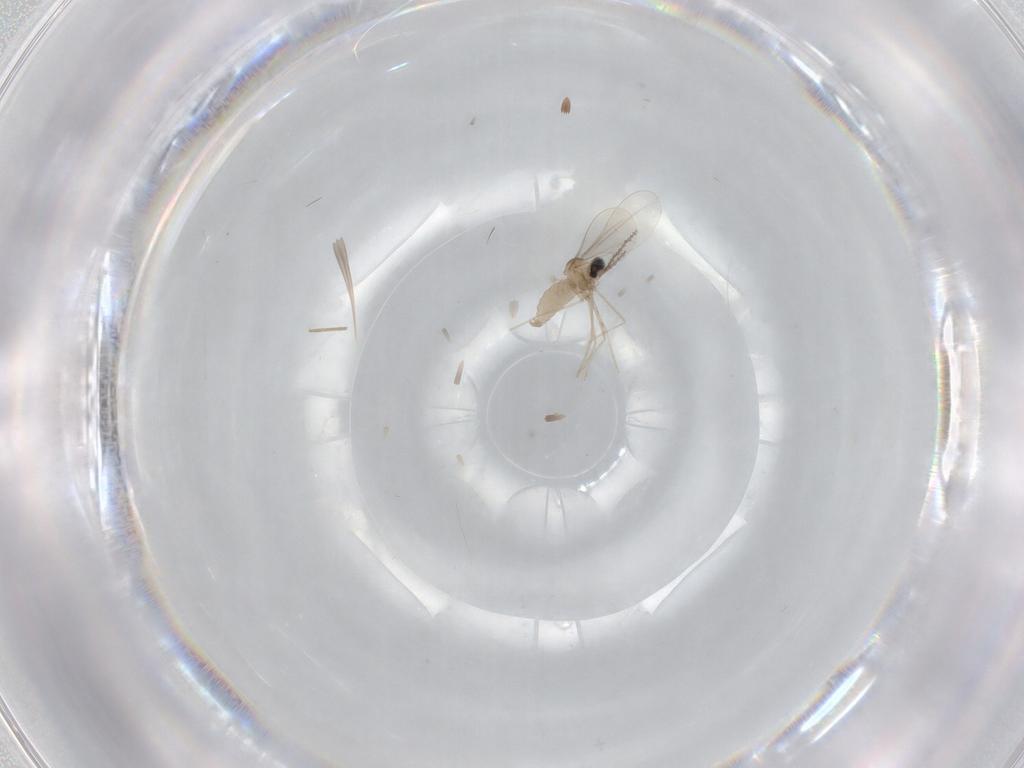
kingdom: Animalia
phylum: Arthropoda
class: Insecta
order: Diptera
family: Cecidomyiidae
